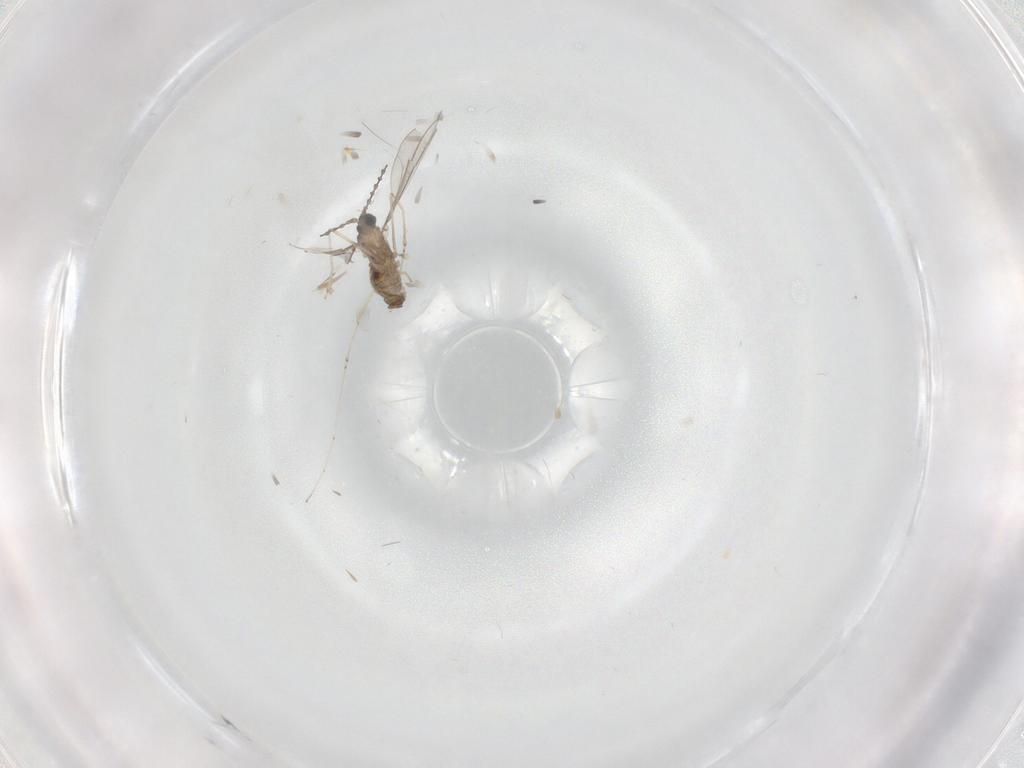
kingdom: Animalia
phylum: Arthropoda
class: Insecta
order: Diptera
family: Cecidomyiidae
